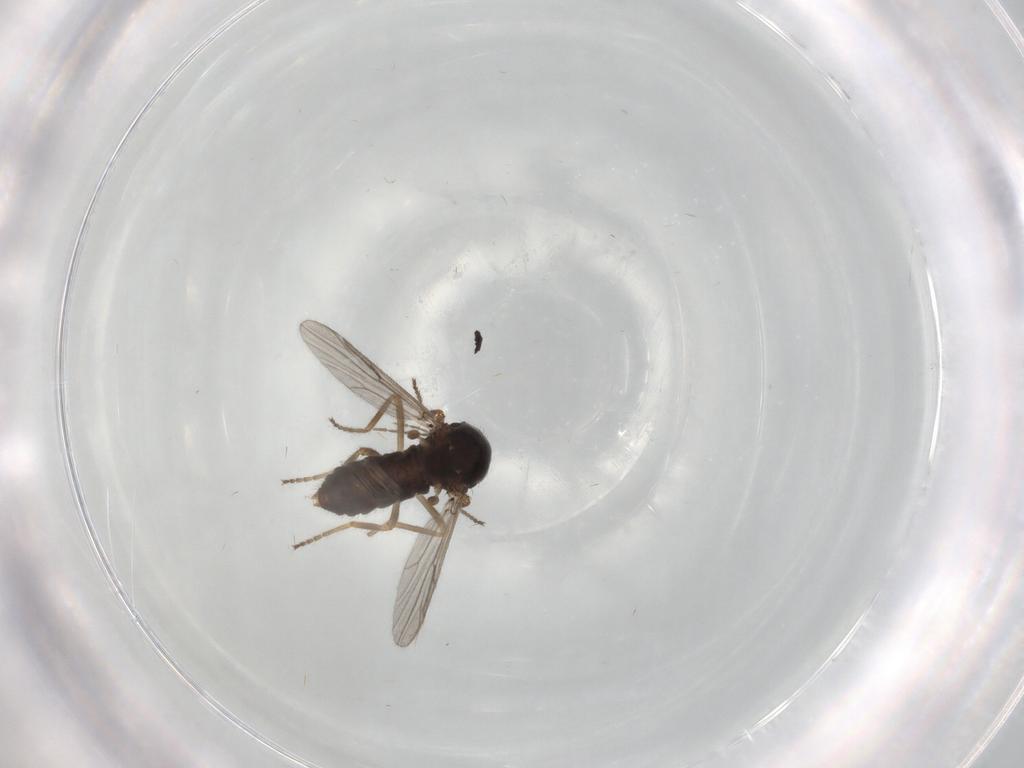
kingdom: Animalia
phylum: Arthropoda
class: Insecta
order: Diptera
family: Ceratopogonidae
